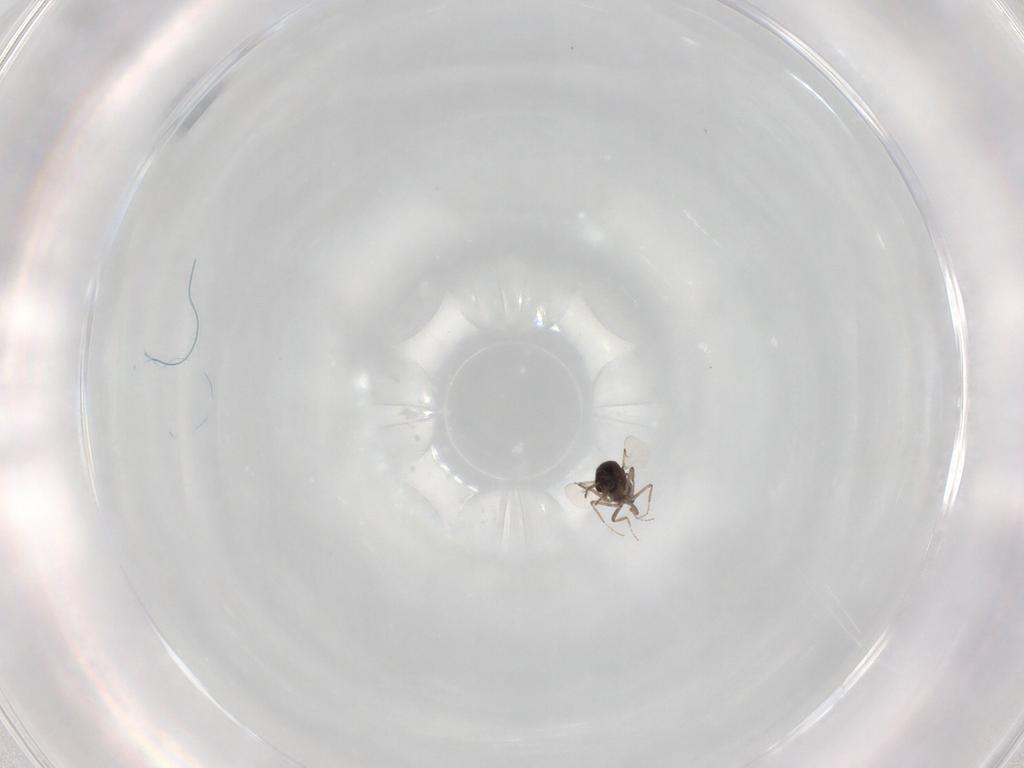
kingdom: Animalia
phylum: Arthropoda
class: Insecta
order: Diptera
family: Ceratopogonidae
